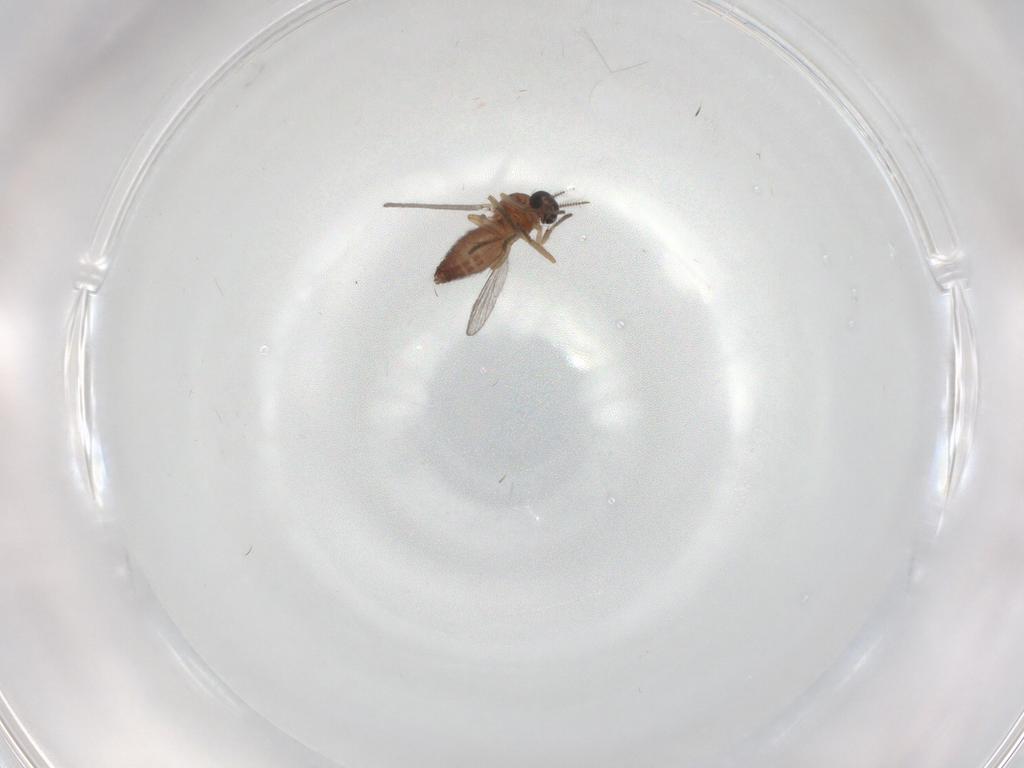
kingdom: Animalia
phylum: Arthropoda
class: Insecta
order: Diptera
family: Ceratopogonidae
